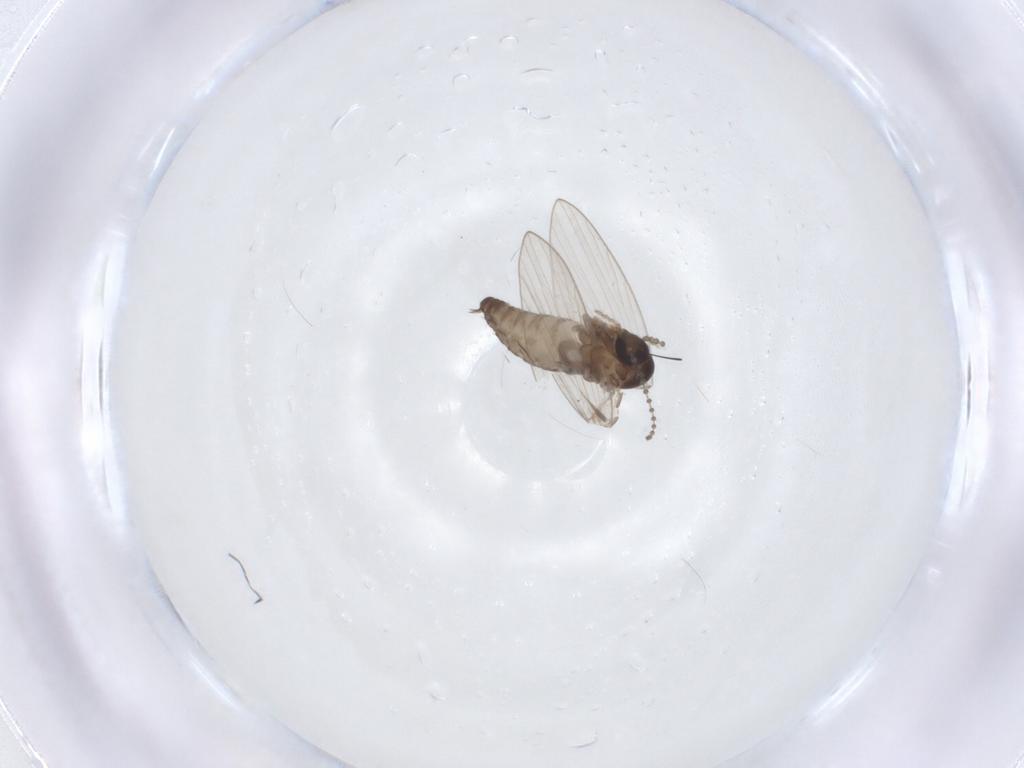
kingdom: Animalia
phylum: Arthropoda
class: Insecta
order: Diptera
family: Psychodidae
